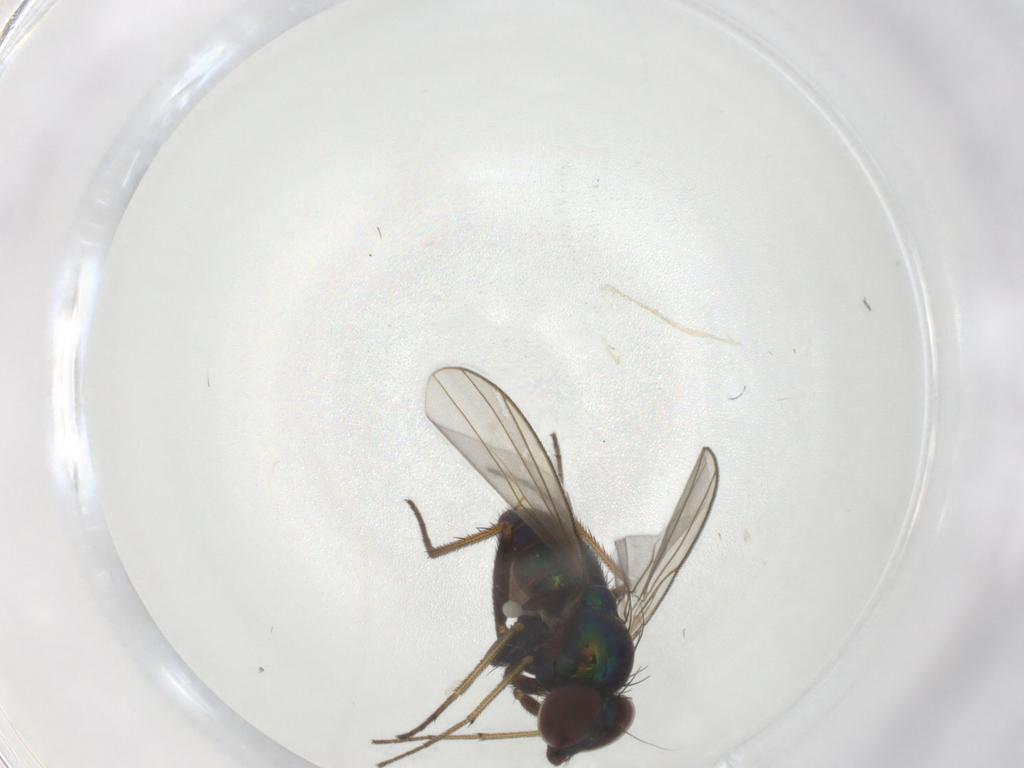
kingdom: Animalia
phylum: Arthropoda
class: Insecta
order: Diptera
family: Dolichopodidae
